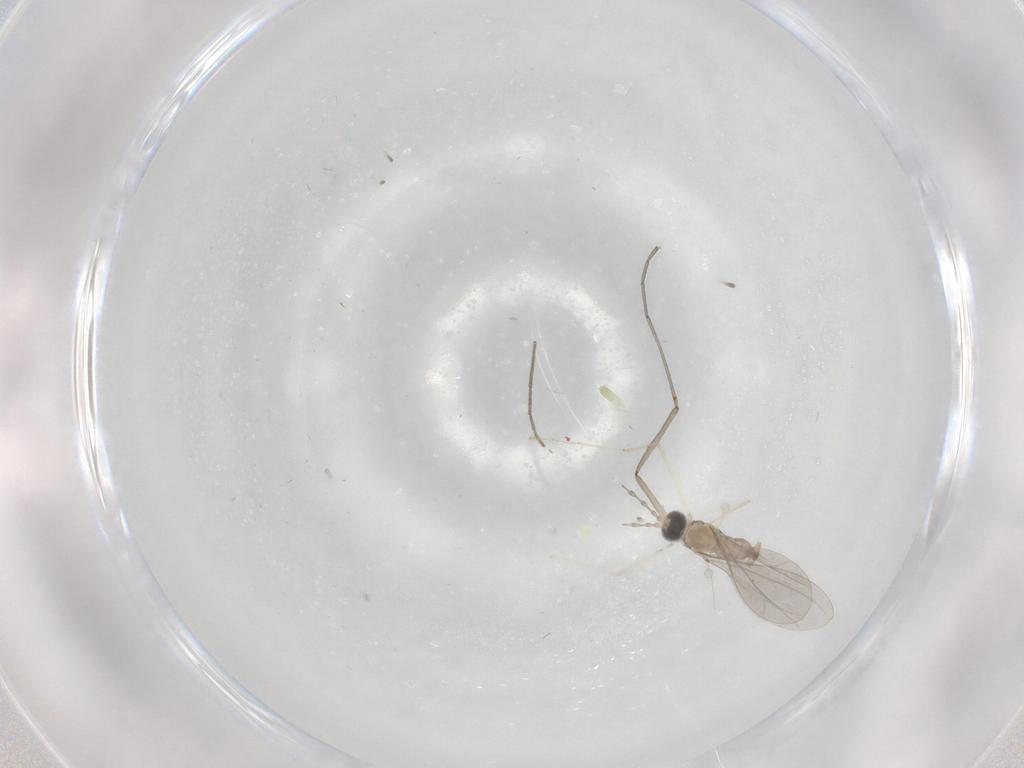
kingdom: Animalia
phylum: Arthropoda
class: Insecta
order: Diptera
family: Cecidomyiidae
